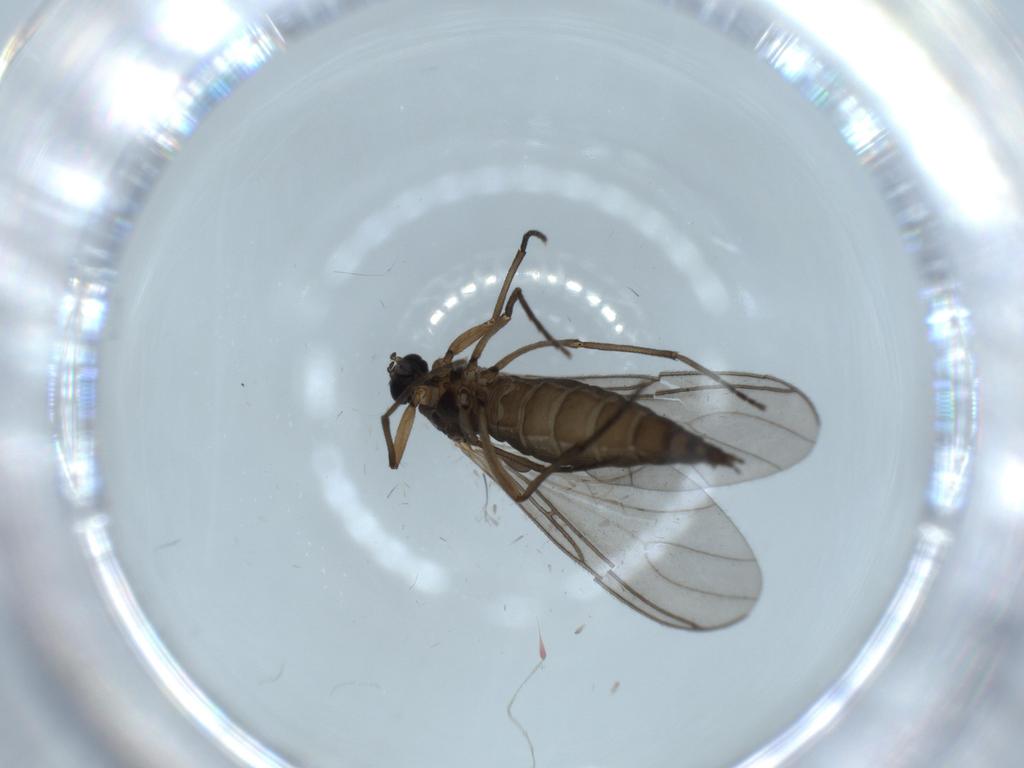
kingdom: Animalia
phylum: Arthropoda
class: Insecta
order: Diptera
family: Sciaridae
